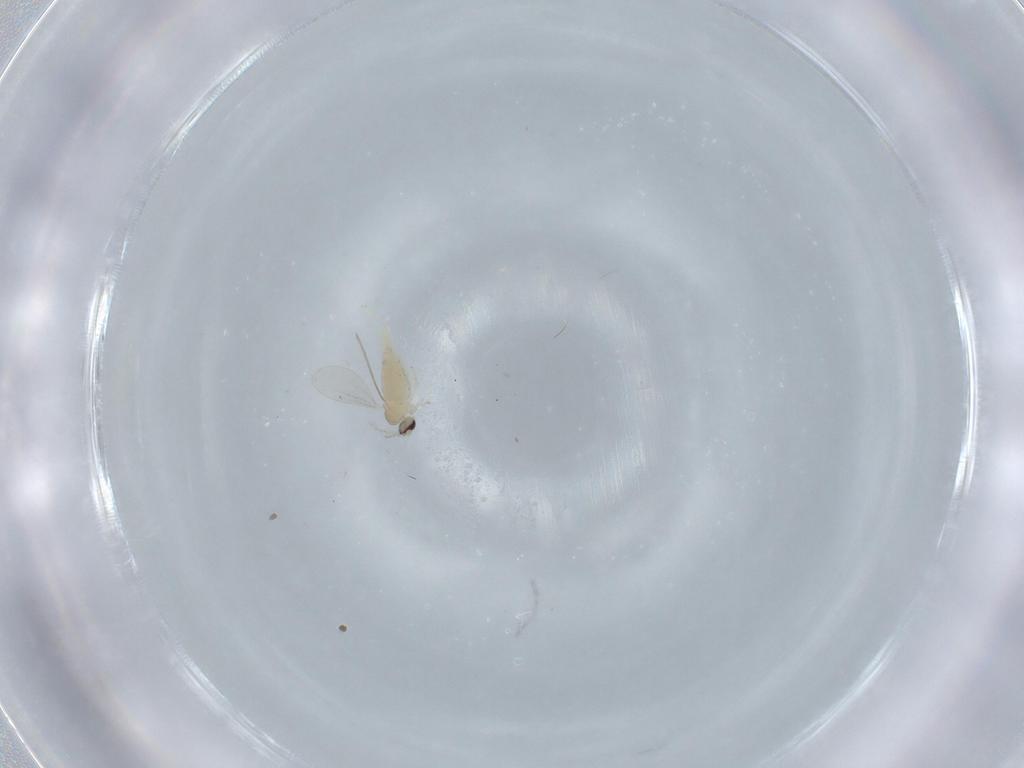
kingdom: Animalia
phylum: Arthropoda
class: Insecta
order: Diptera
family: Cecidomyiidae
